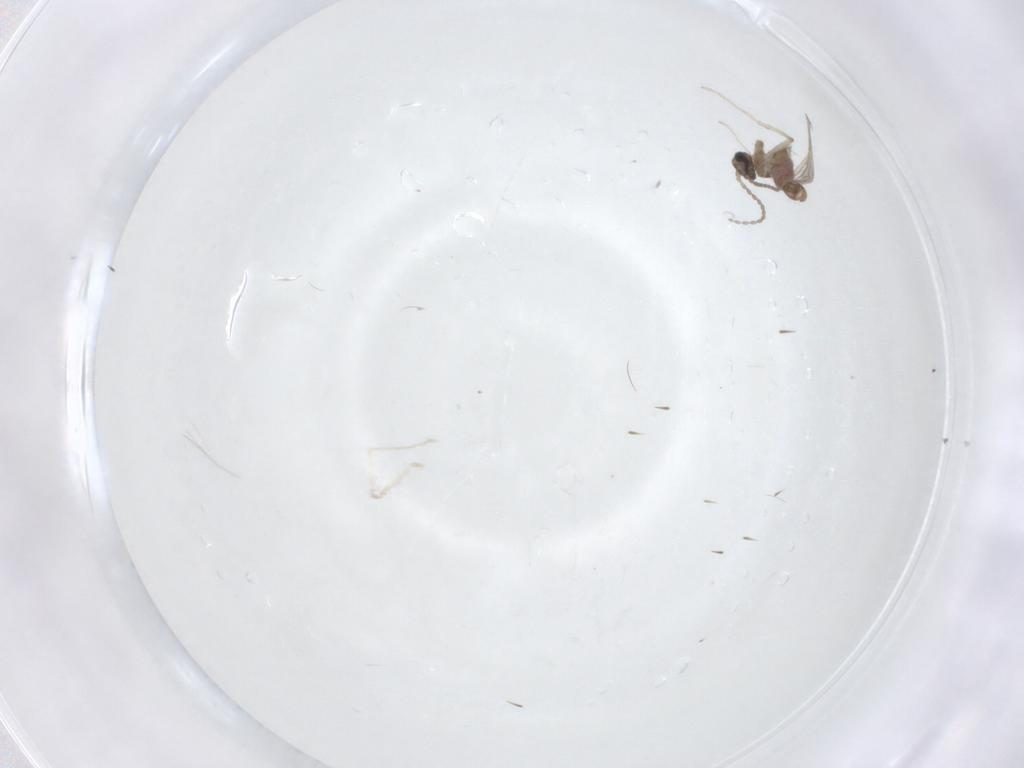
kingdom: Animalia
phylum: Arthropoda
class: Insecta
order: Diptera
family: Cecidomyiidae
